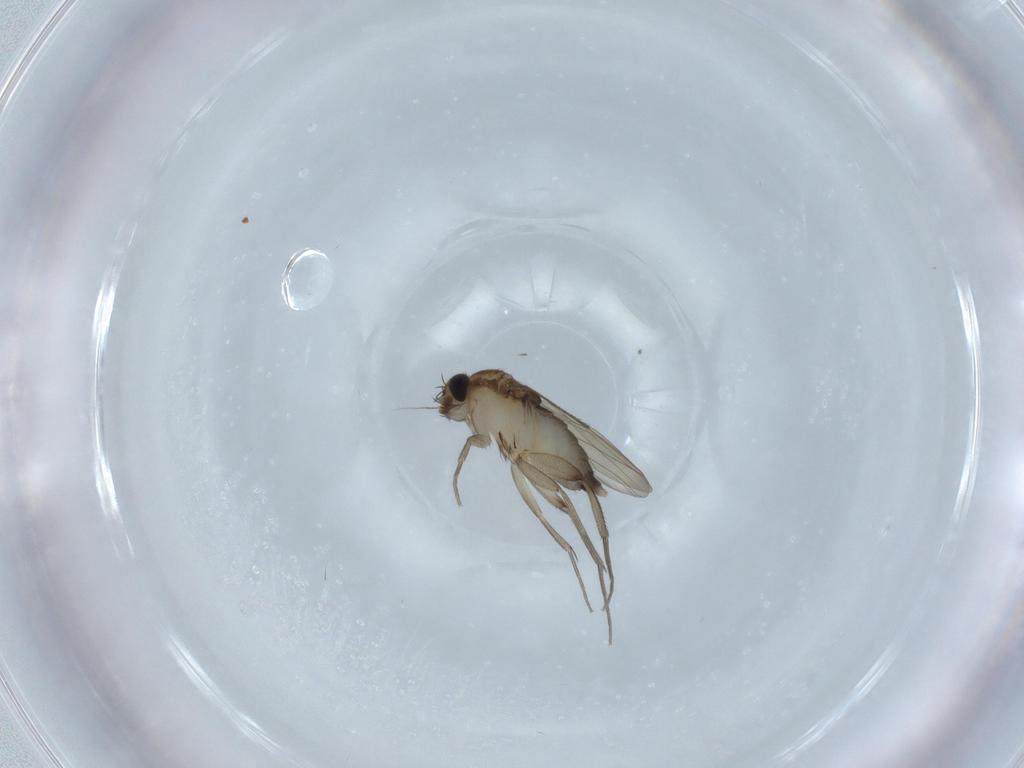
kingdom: Animalia
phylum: Arthropoda
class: Insecta
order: Diptera
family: Phoridae
